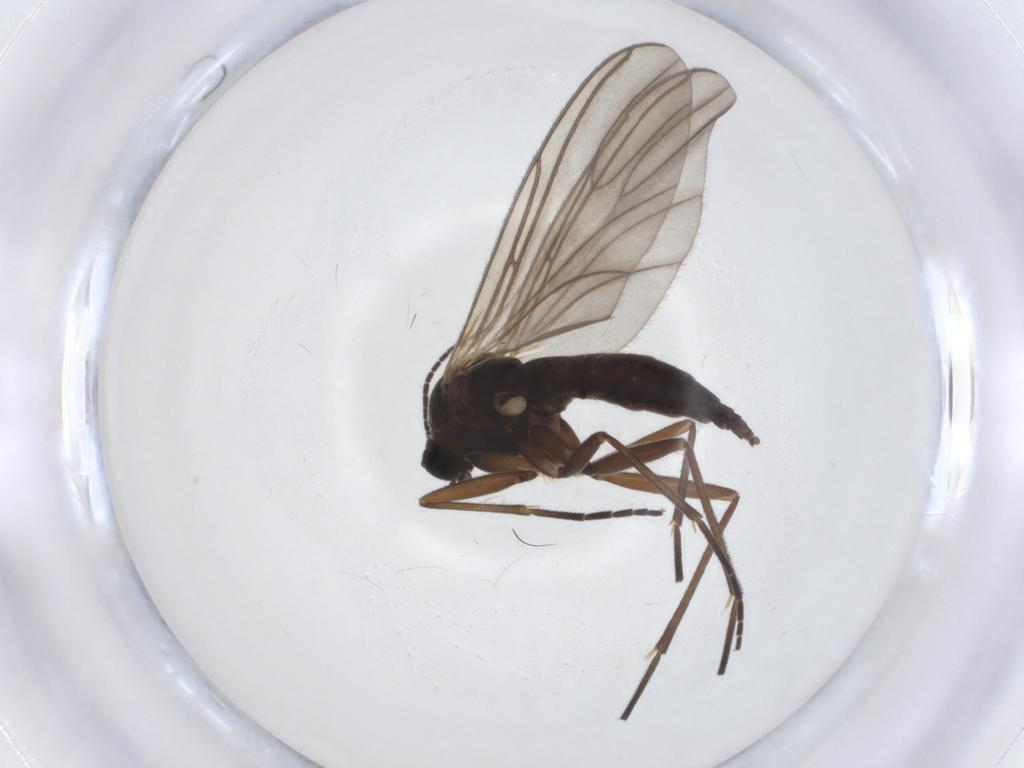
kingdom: Animalia
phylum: Arthropoda
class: Insecta
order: Diptera
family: Sciaridae
